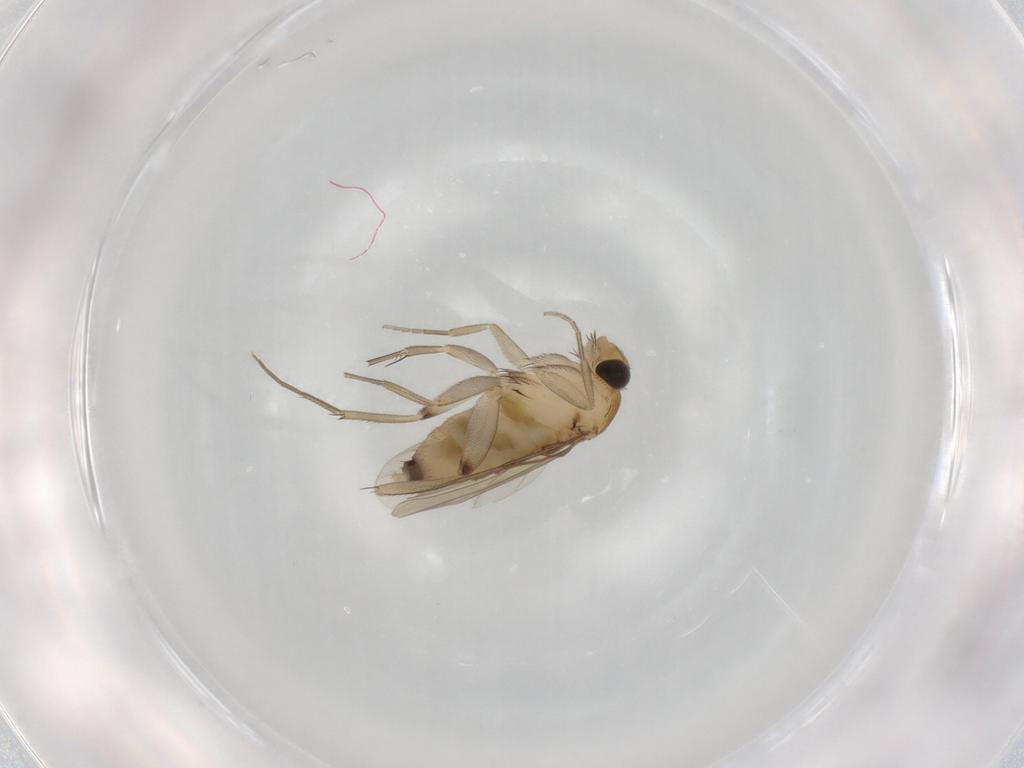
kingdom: Animalia
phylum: Arthropoda
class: Insecta
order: Diptera
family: Phoridae
